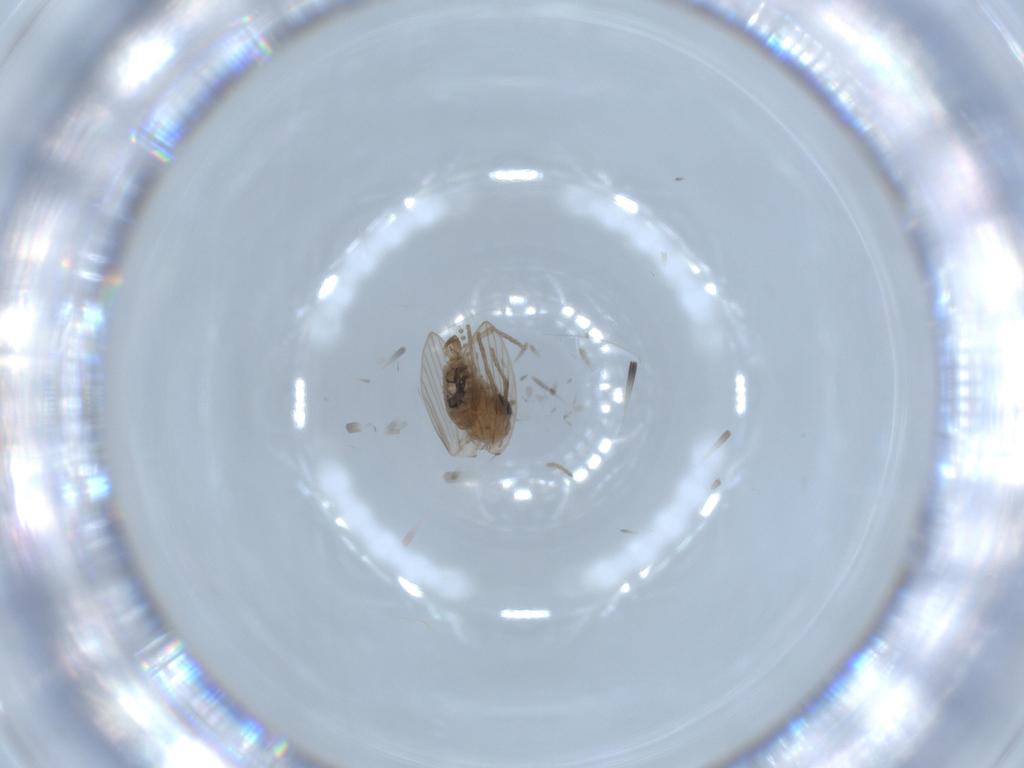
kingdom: Animalia
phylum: Arthropoda
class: Insecta
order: Diptera
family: Psychodidae
